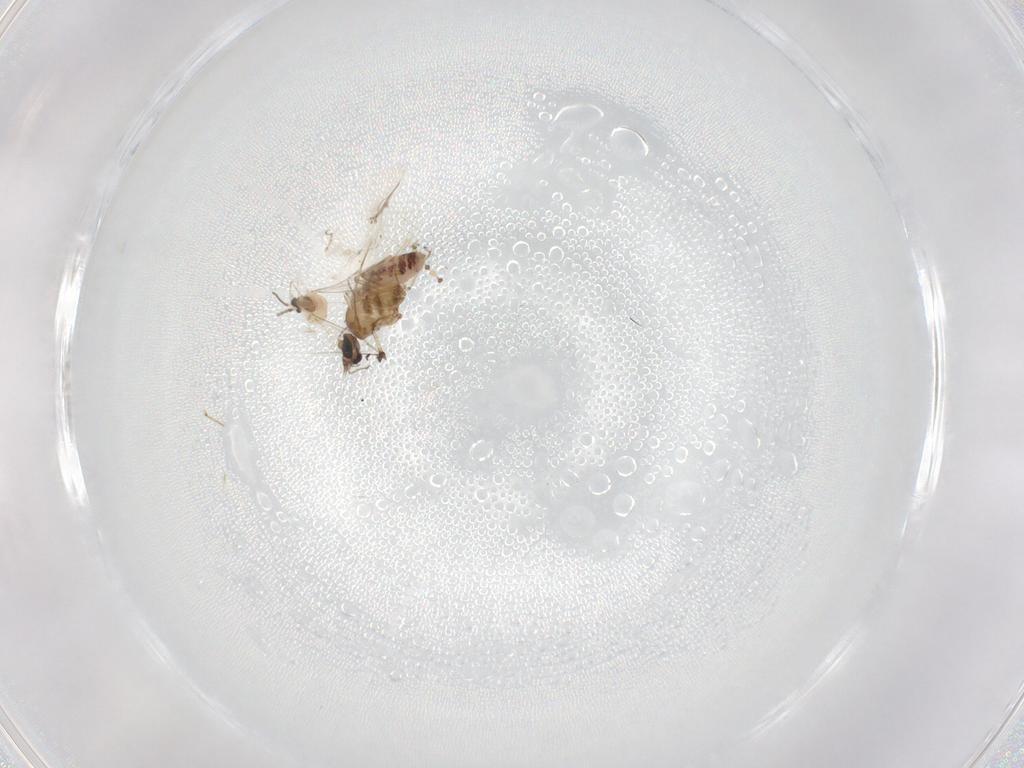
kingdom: Animalia
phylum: Arthropoda
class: Insecta
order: Diptera
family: Ceratopogonidae
